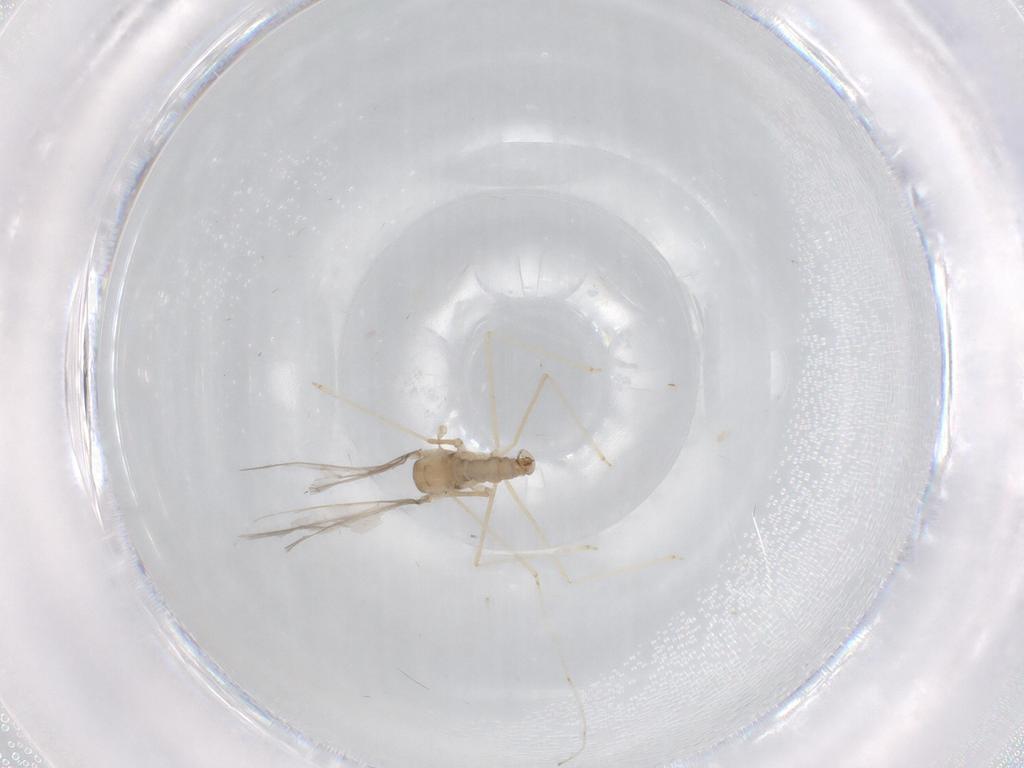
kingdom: Animalia
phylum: Arthropoda
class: Insecta
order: Diptera
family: Cecidomyiidae
